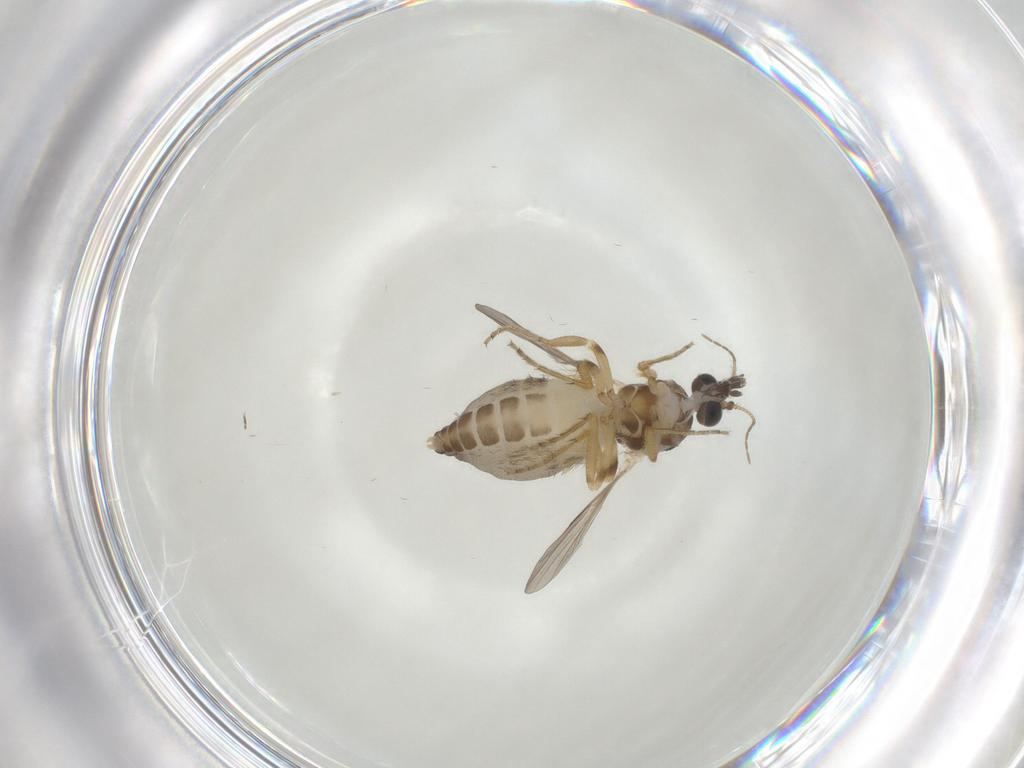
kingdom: Animalia
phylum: Arthropoda
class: Insecta
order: Diptera
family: Ceratopogonidae
